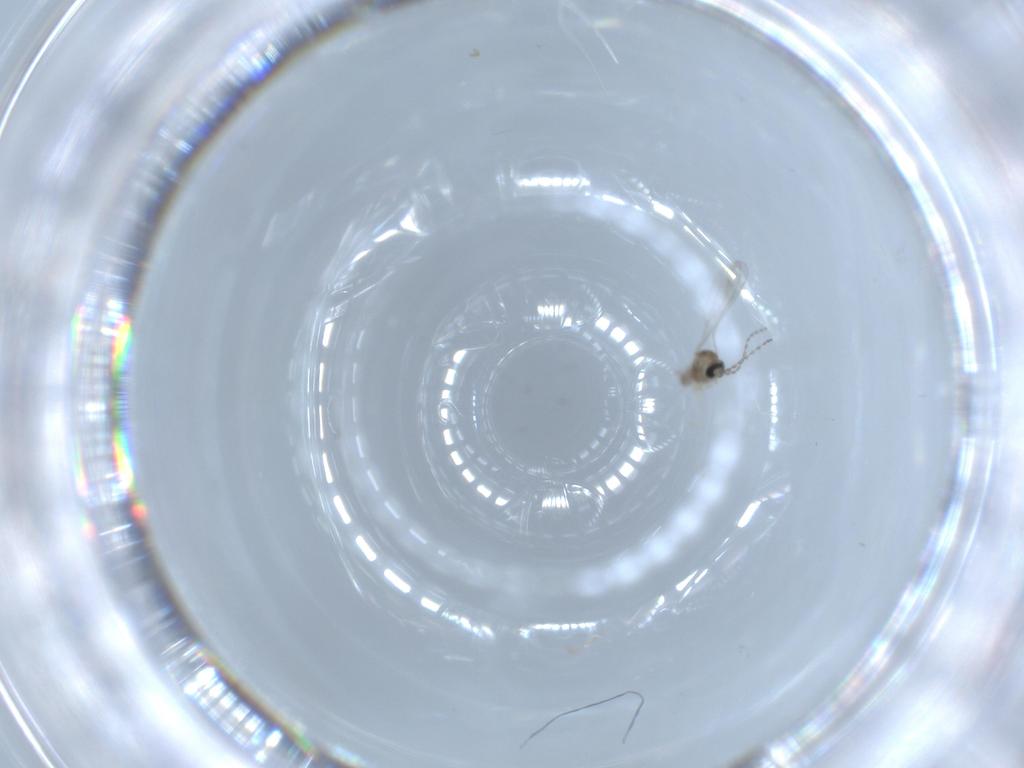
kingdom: Animalia
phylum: Arthropoda
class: Insecta
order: Diptera
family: Cecidomyiidae
